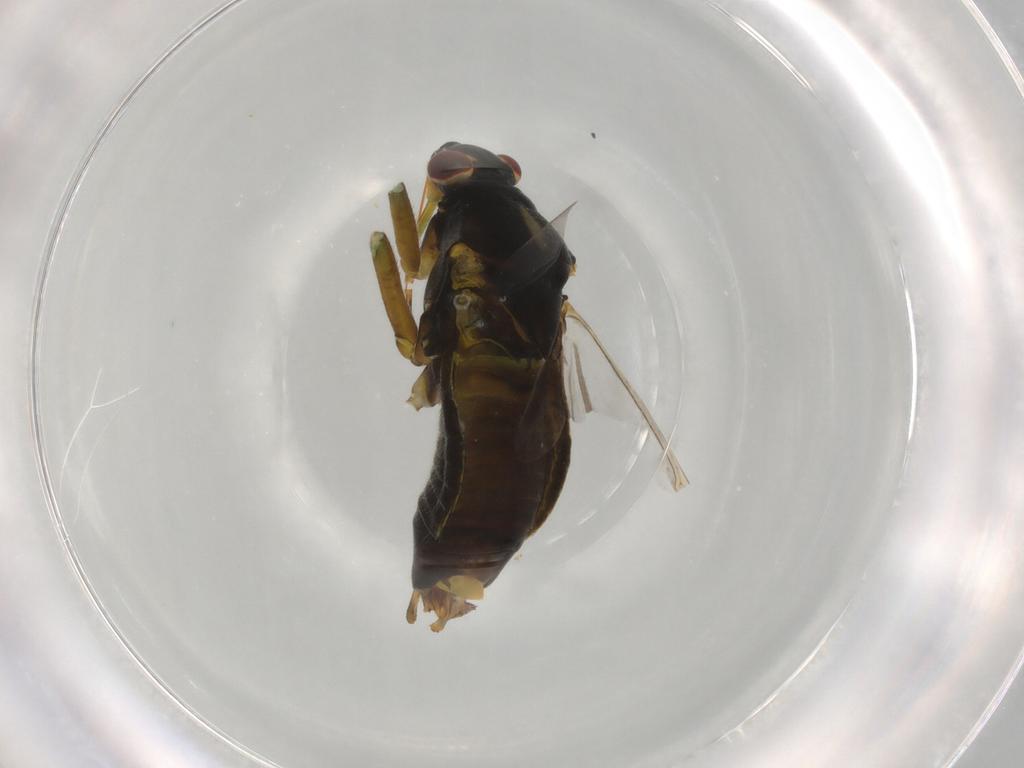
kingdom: Animalia
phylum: Arthropoda
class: Insecta
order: Hemiptera
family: Miridae
